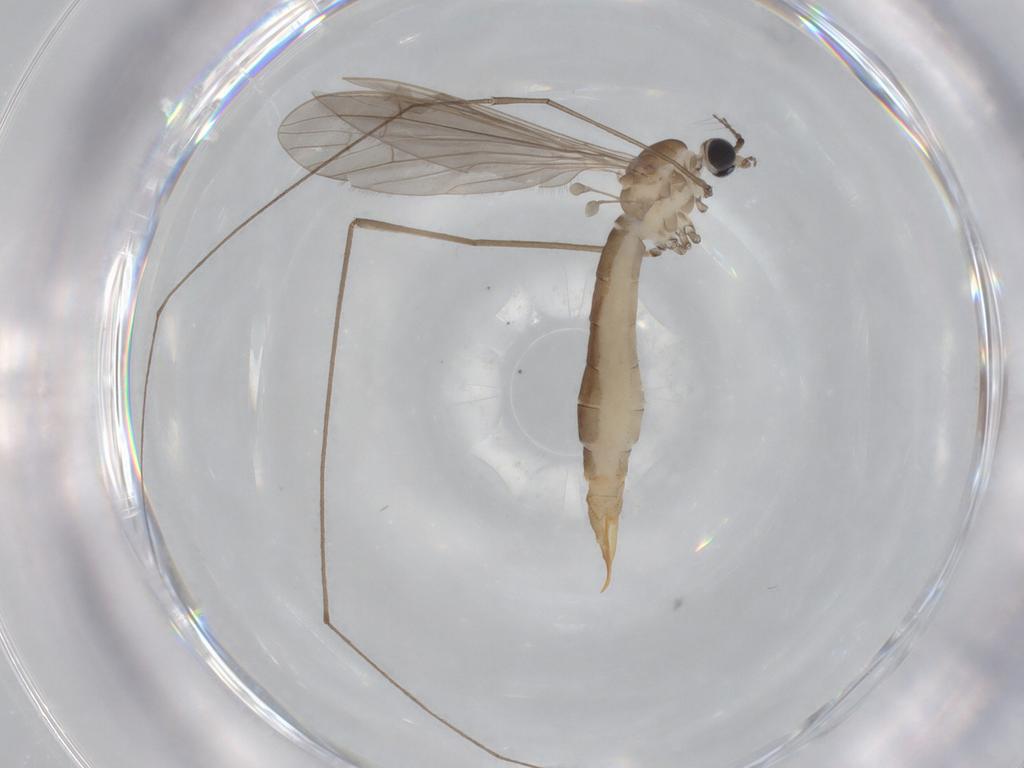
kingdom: Animalia
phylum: Arthropoda
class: Insecta
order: Diptera
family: Limoniidae
